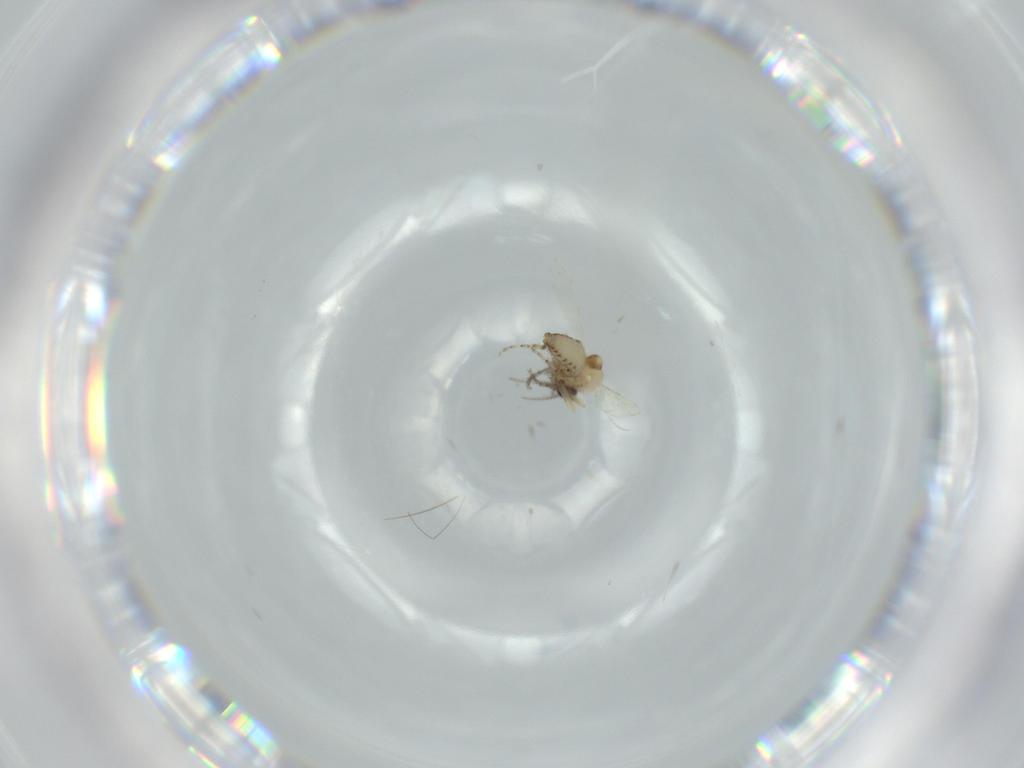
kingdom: Animalia
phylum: Arthropoda
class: Insecta
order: Diptera
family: Ceratopogonidae
